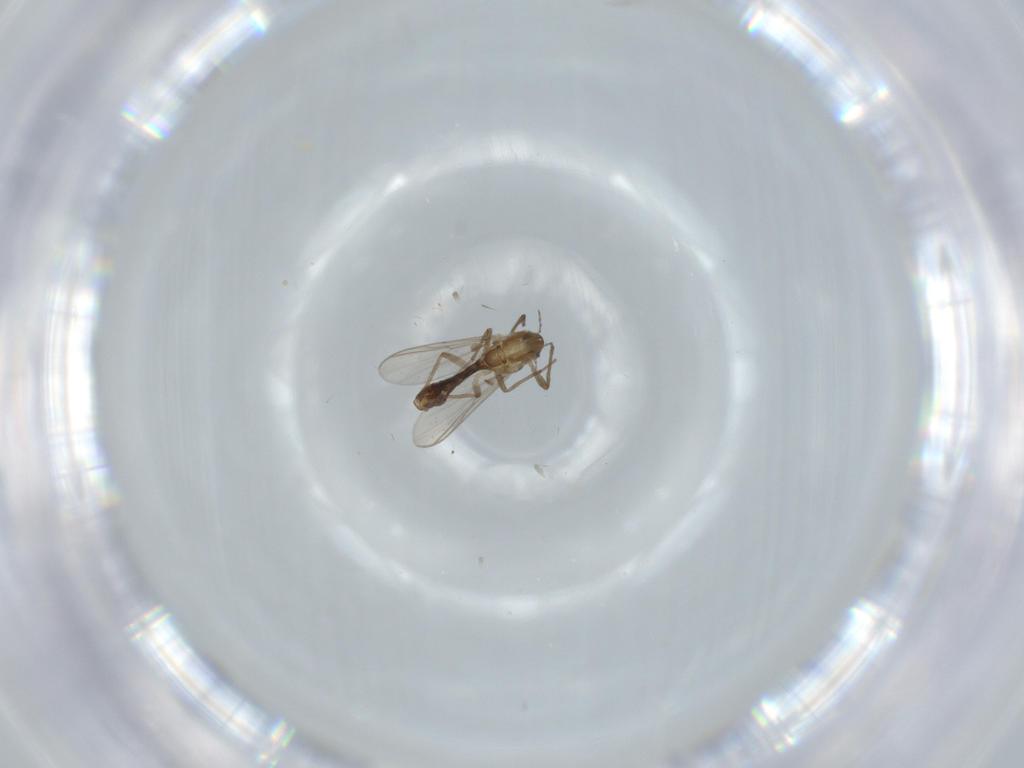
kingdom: Animalia
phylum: Arthropoda
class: Insecta
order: Diptera
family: Chironomidae
